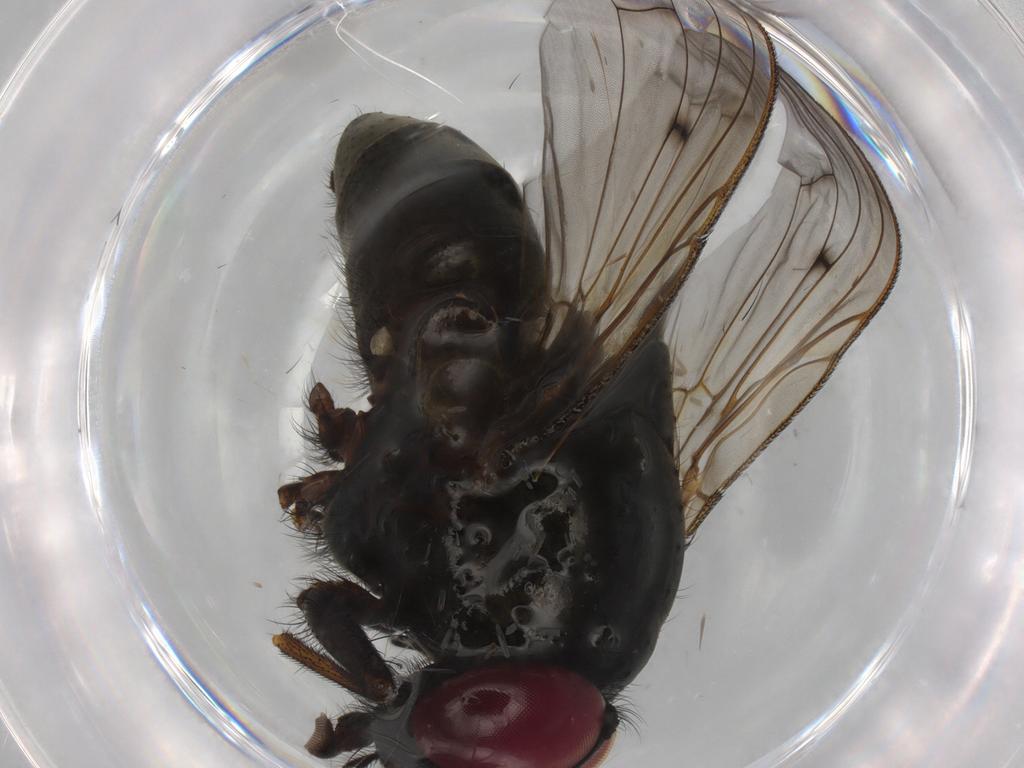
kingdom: Animalia
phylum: Arthropoda
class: Insecta
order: Diptera
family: Muscidae
